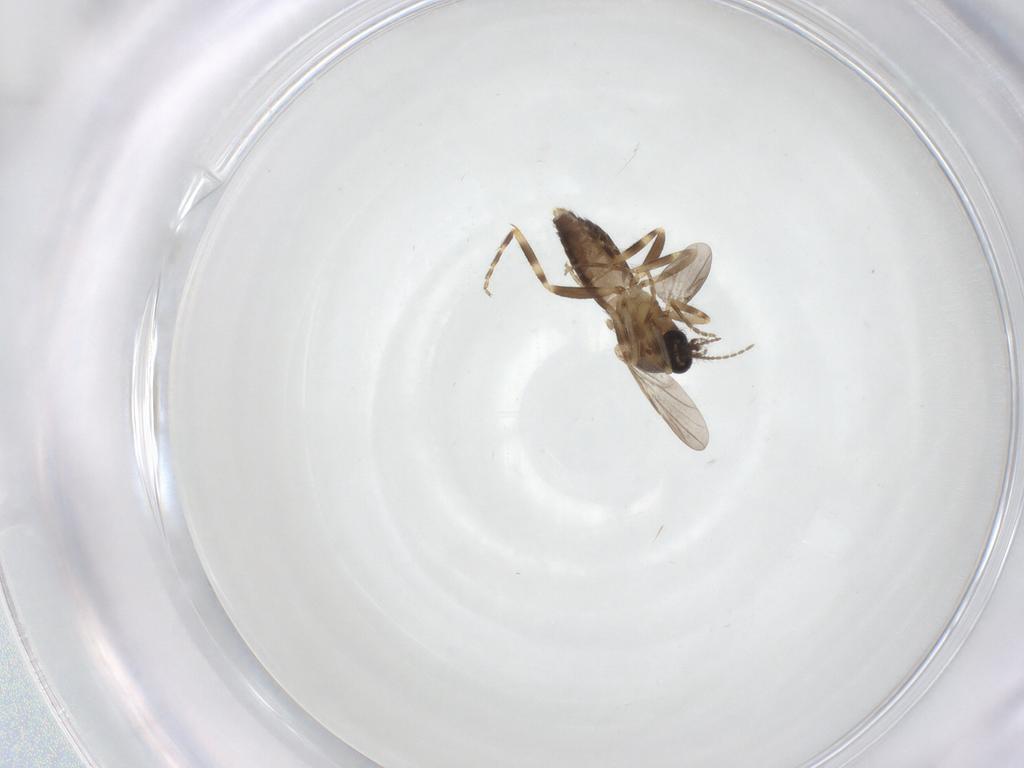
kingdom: Animalia
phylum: Arthropoda
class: Insecta
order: Diptera
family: Ceratopogonidae
